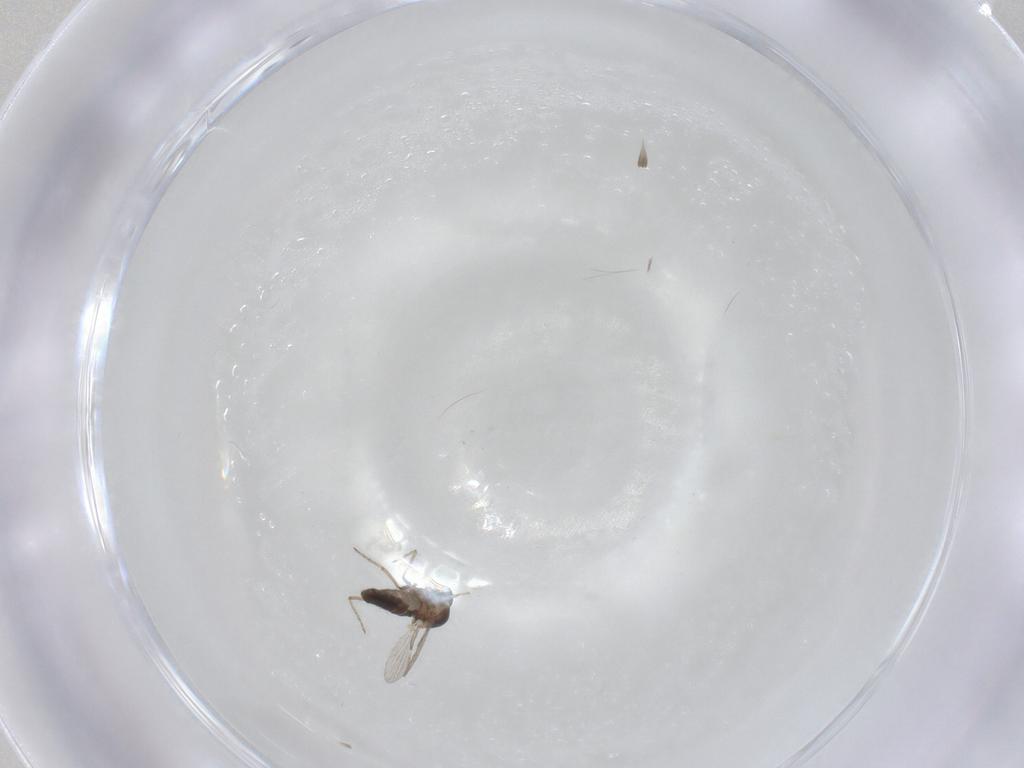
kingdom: Animalia
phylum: Arthropoda
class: Insecta
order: Diptera
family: Ceratopogonidae
